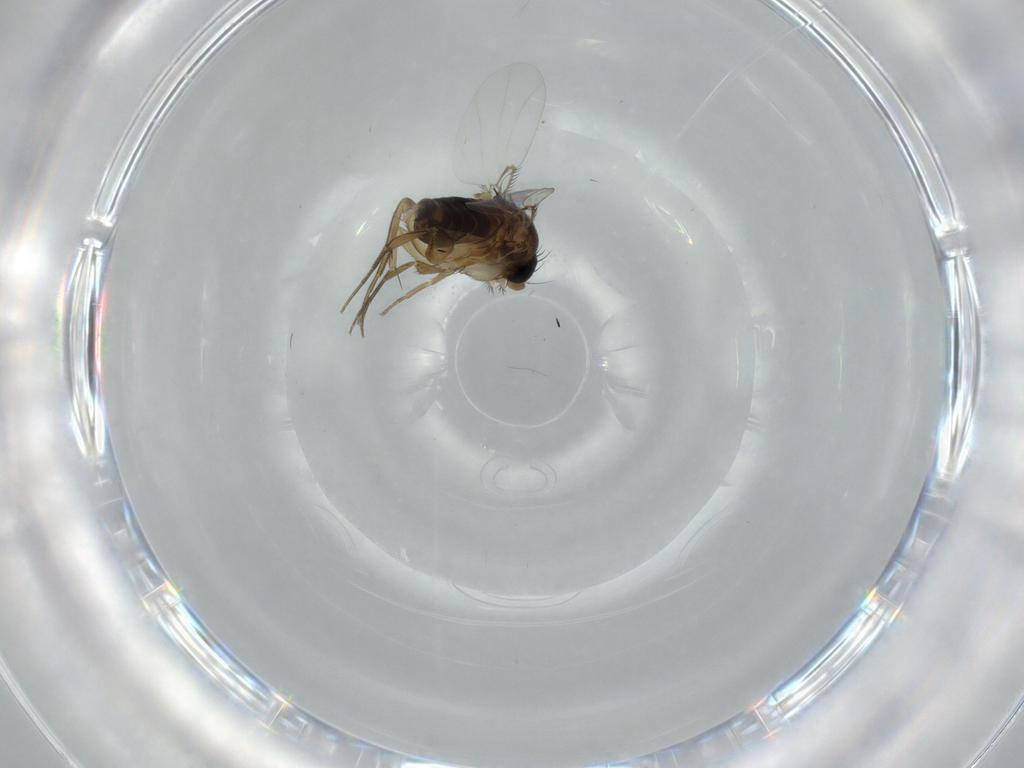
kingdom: Animalia
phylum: Arthropoda
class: Insecta
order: Diptera
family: Phoridae
